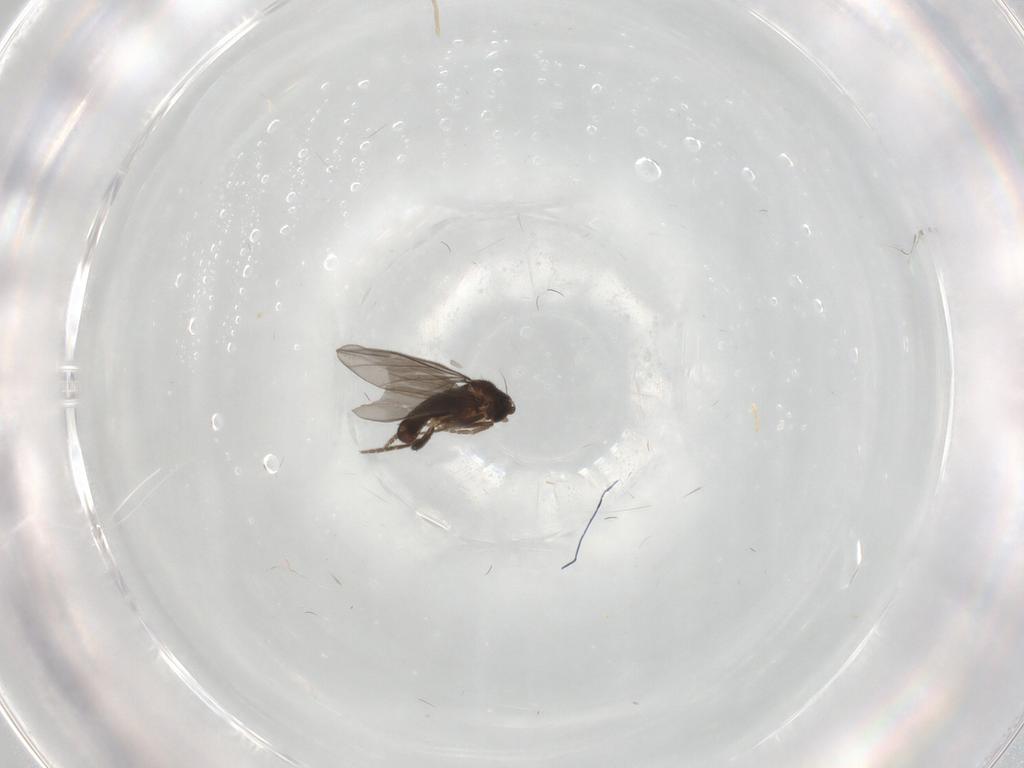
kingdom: Animalia
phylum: Arthropoda
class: Insecta
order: Diptera
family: Phoridae
